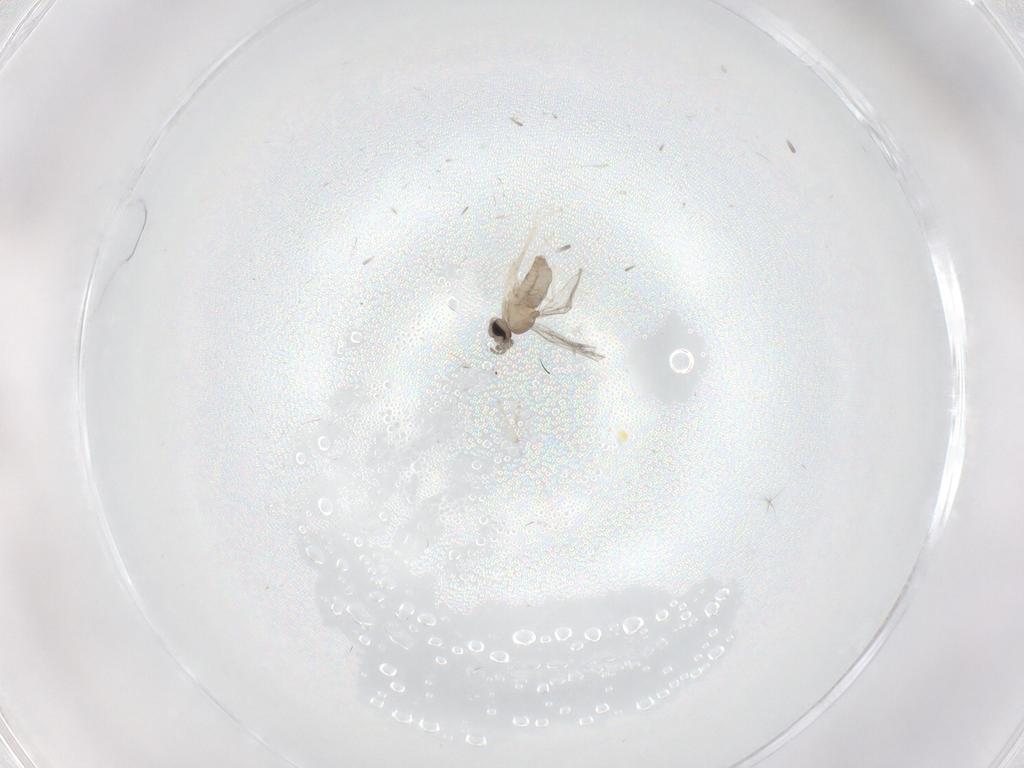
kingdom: Animalia
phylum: Arthropoda
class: Insecta
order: Diptera
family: Cecidomyiidae
